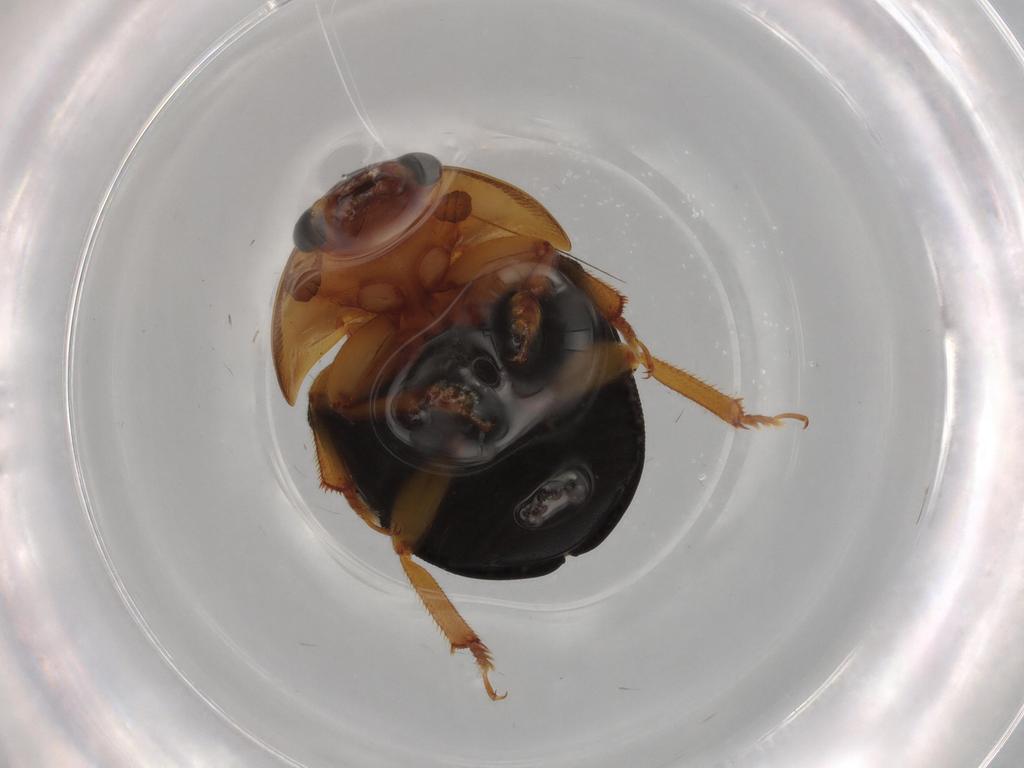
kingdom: Animalia
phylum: Arthropoda
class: Insecta
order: Coleoptera
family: Nitidulidae
